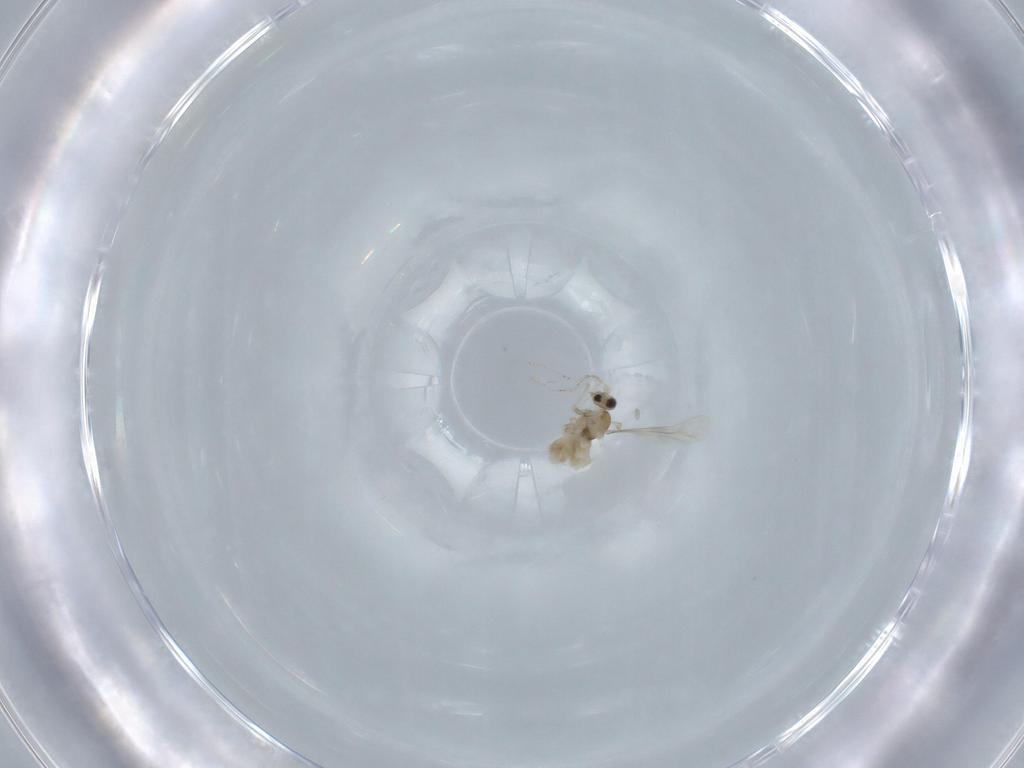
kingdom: Animalia
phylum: Arthropoda
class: Insecta
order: Diptera
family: Cecidomyiidae
